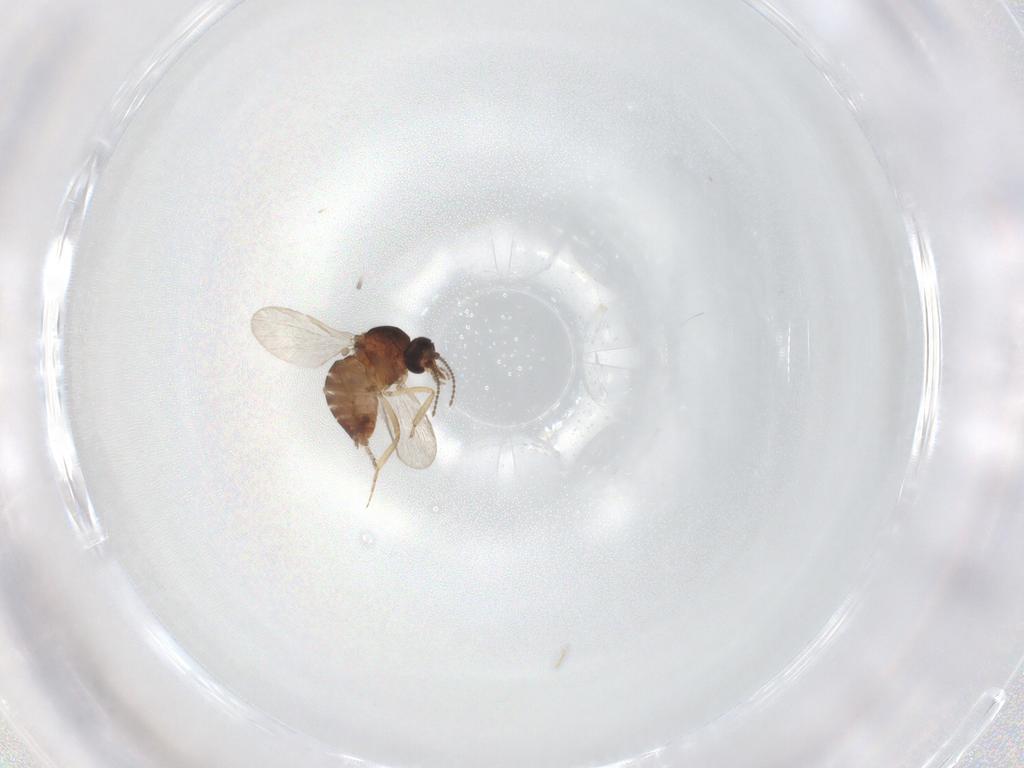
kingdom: Animalia
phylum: Arthropoda
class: Insecta
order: Diptera
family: Ceratopogonidae
